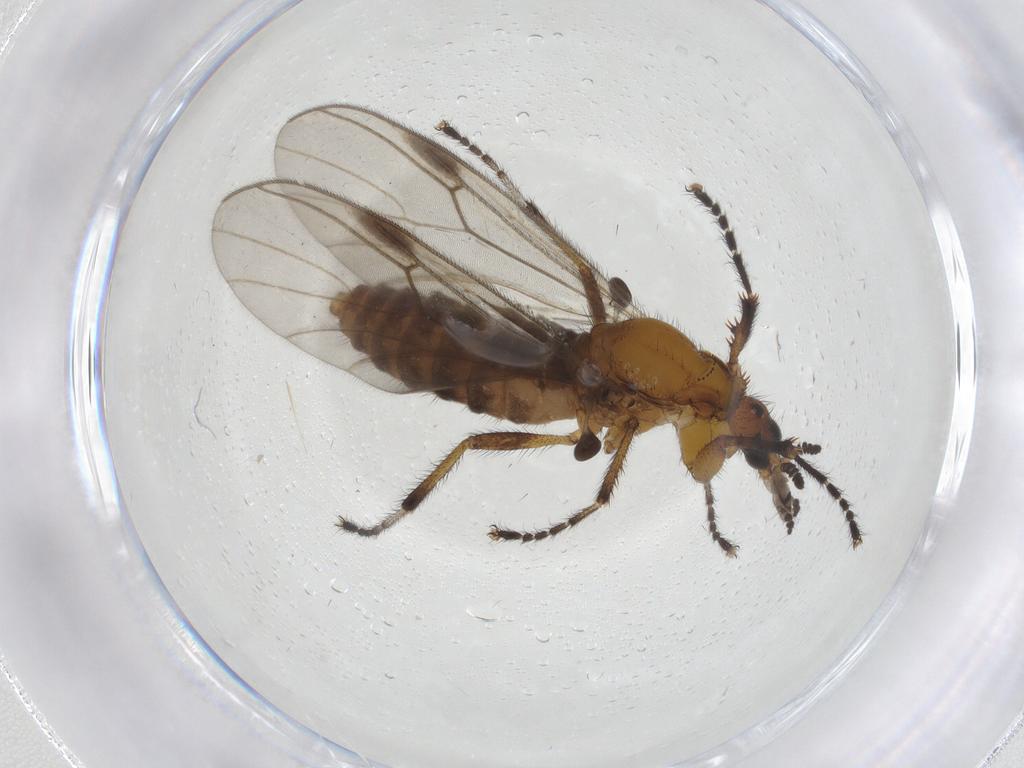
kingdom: Animalia
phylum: Arthropoda
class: Insecta
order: Diptera
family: Bibionidae
